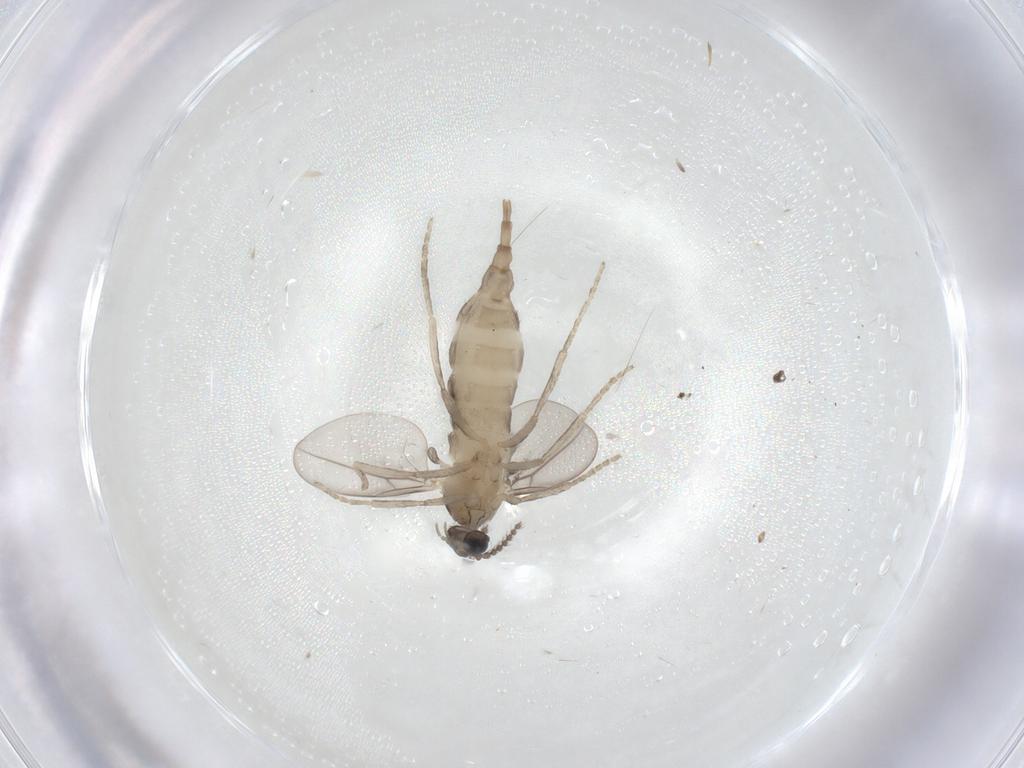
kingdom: Animalia
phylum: Arthropoda
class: Insecta
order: Diptera
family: Cecidomyiidae
